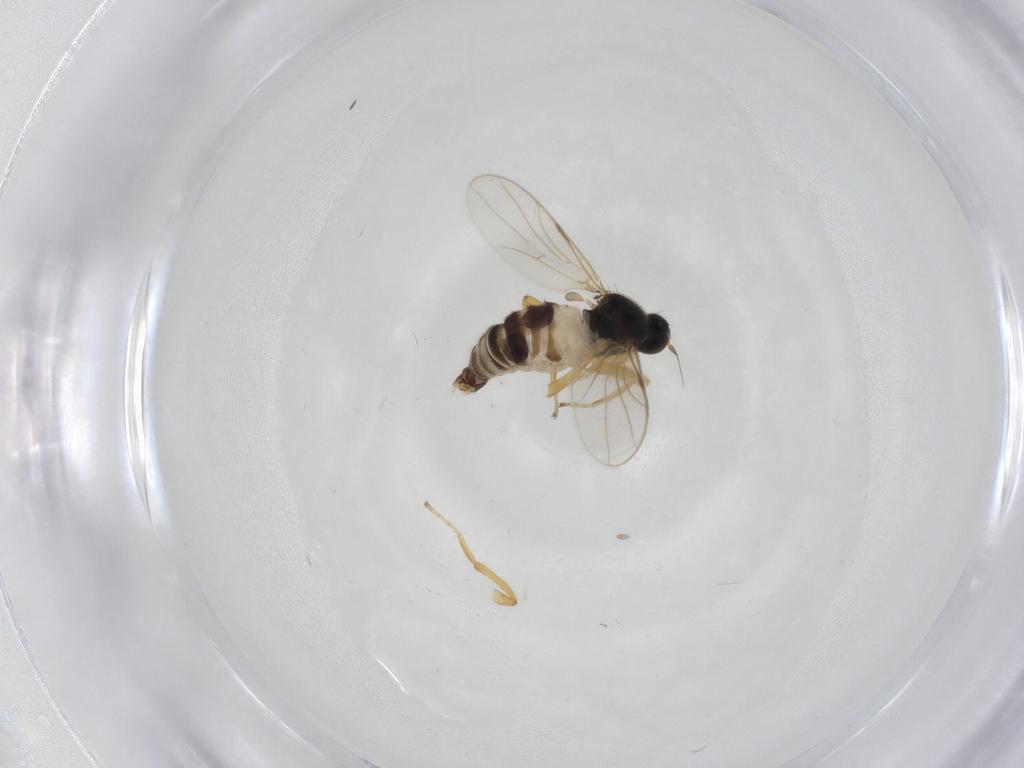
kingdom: Animalia
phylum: Arthropoda
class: Insecta
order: Diptera
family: Hybotidae
